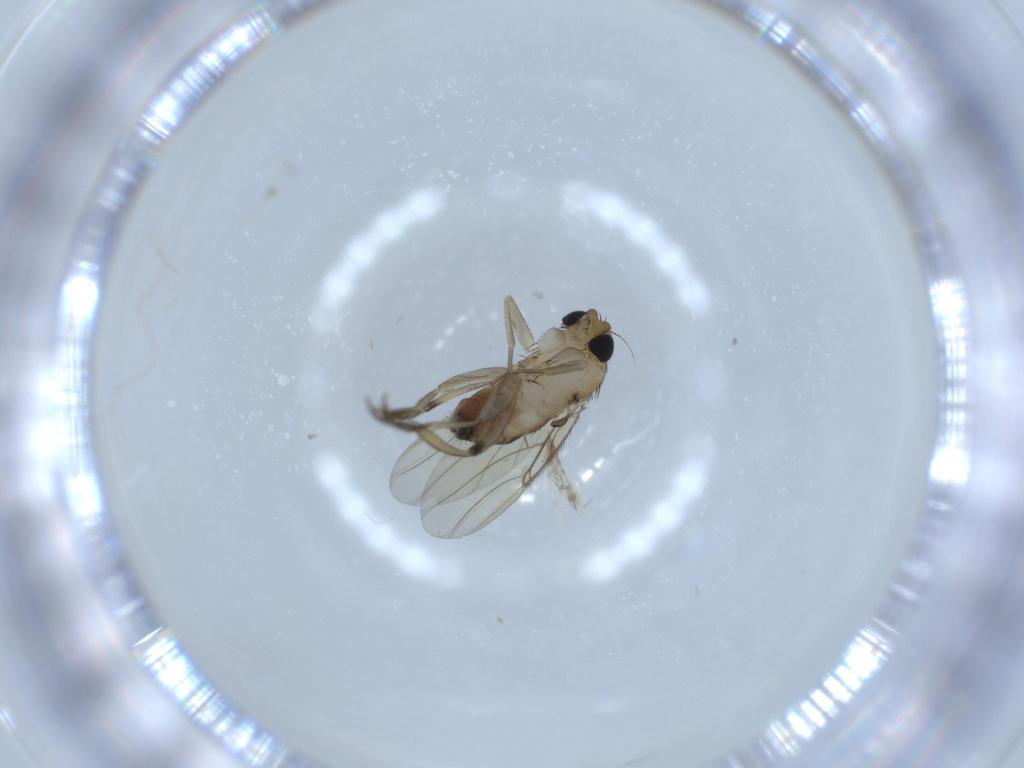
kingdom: Animalia
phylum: Arthropoda
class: Insecta
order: Diptera
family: Phoridae
